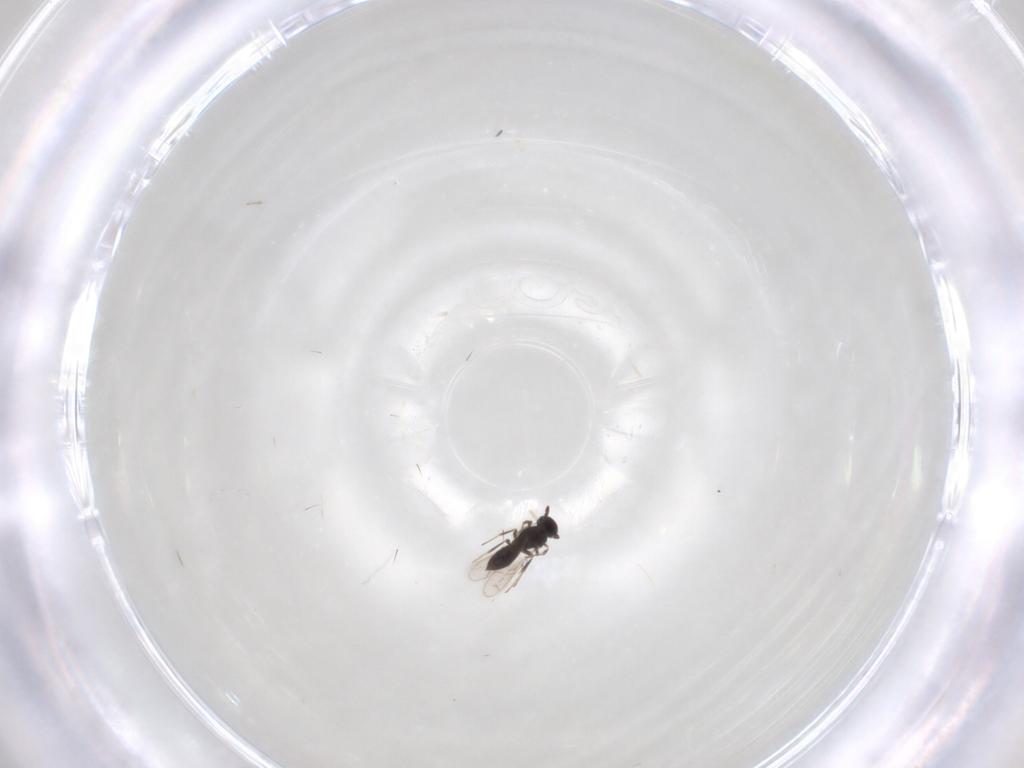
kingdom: Animalia
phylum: Arthropoda
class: Insecta
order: Hymenoptera
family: Scelionidae
